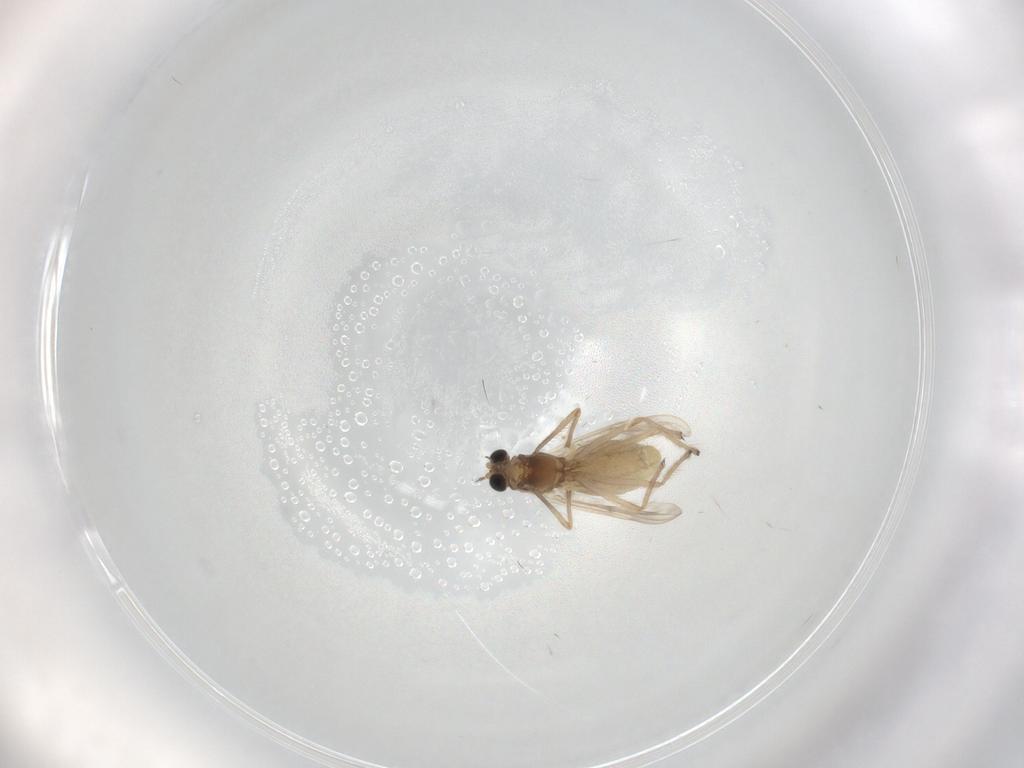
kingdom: Animalia
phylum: Arthropoda
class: Insecta
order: Diptera
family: Chironomidae
